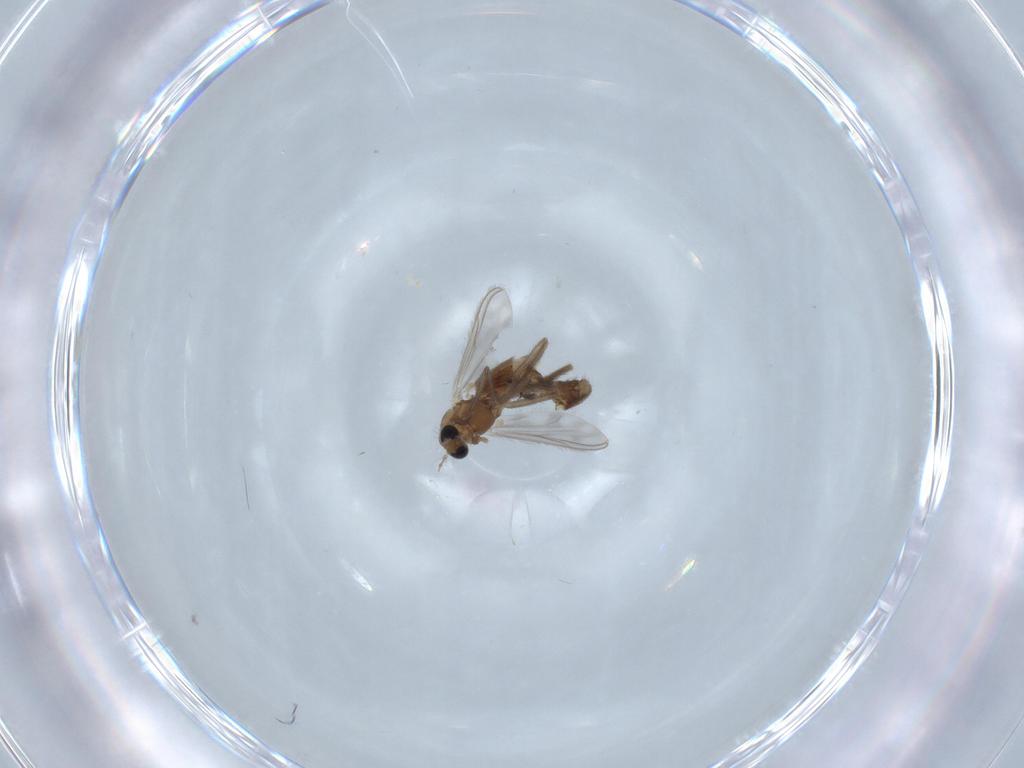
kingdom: Animalia
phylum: Arthropoda
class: Insecta
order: Diptera
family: Chironomidae
